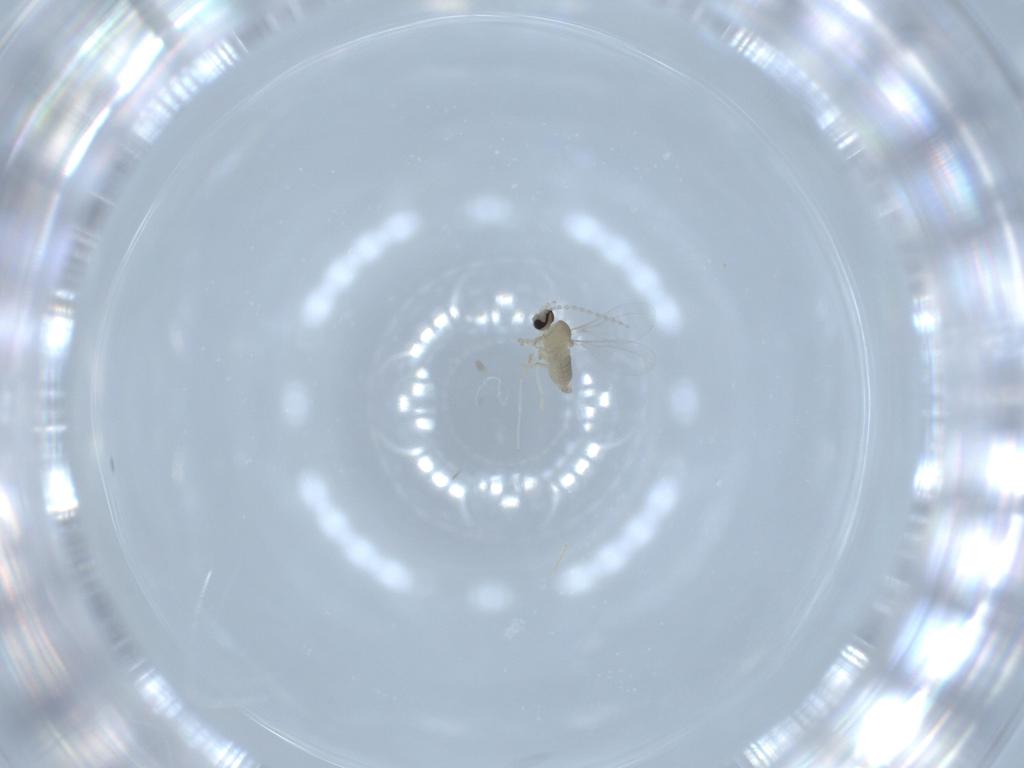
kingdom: Animalia
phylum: Arthropoda
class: Insecta
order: Diptera
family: Cecidomyiidae
